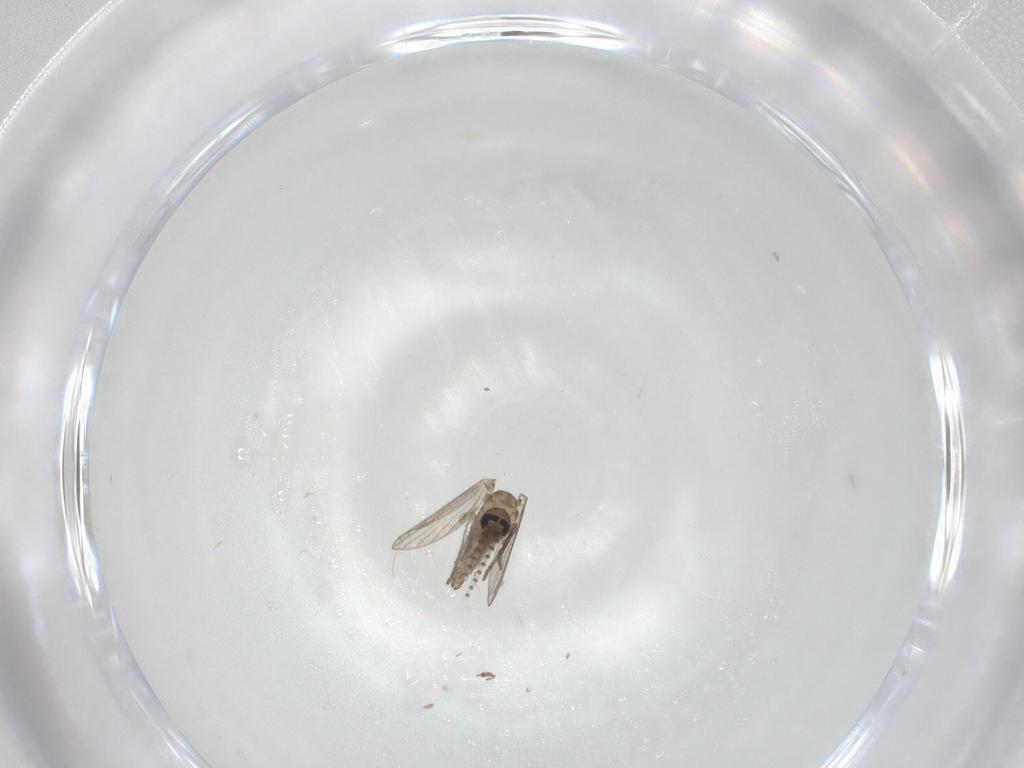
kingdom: Animalia
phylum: Arthropoda
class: Insecta
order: Diptera
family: Psychodidae
